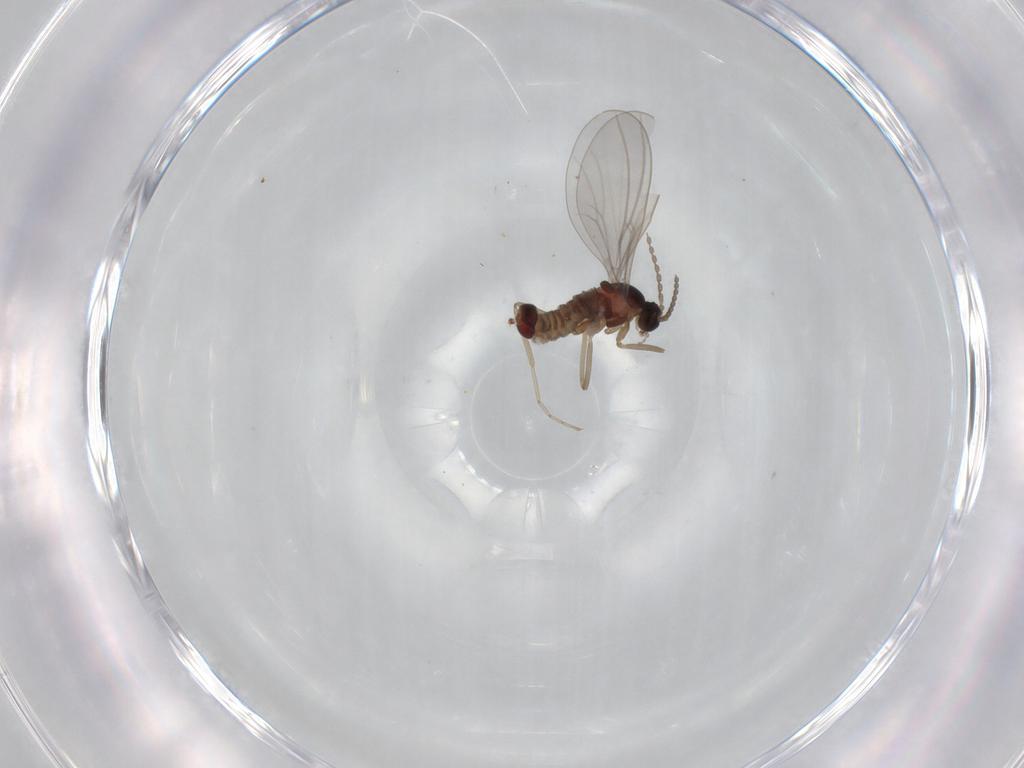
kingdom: Animalia
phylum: Arthropoda
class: Insecta
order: Diptera
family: Cecidomyiidae
